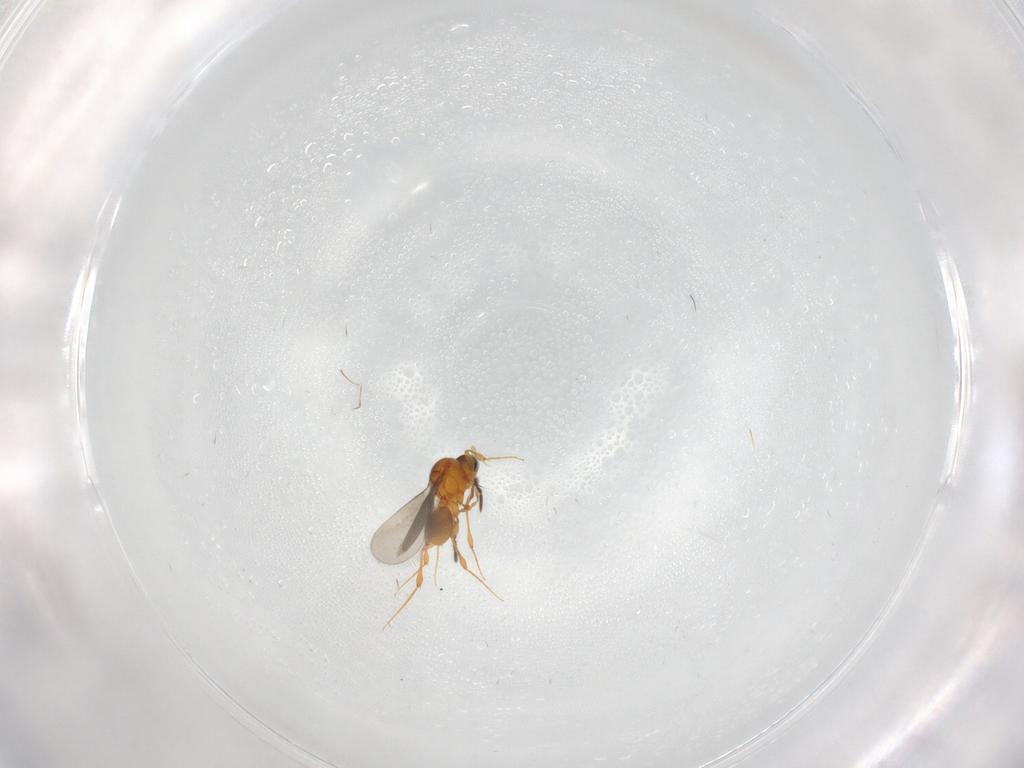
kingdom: Animalia
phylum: Arthropoda
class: Insecta
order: Hymenoptera
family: Platygastridae
